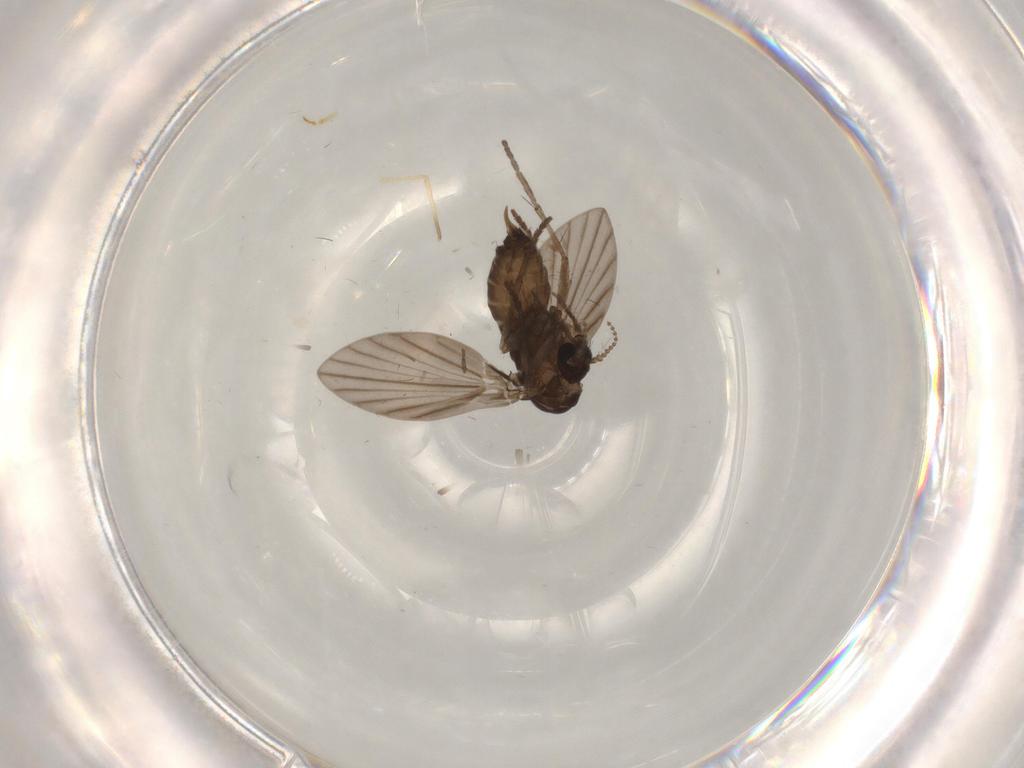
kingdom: Animalia
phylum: Arthropoda
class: Insecta
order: Diptera
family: Psychodidae
